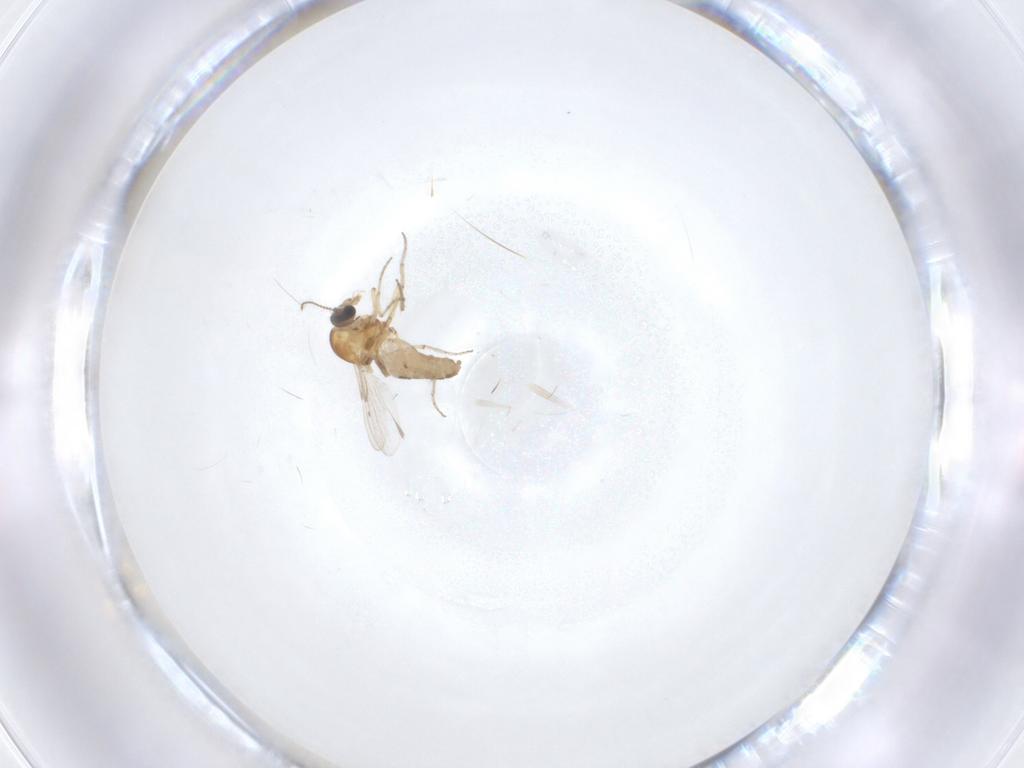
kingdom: Animalia
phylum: Arthropoda
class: Insecta
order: Diptera
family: Ceratopogonidae
